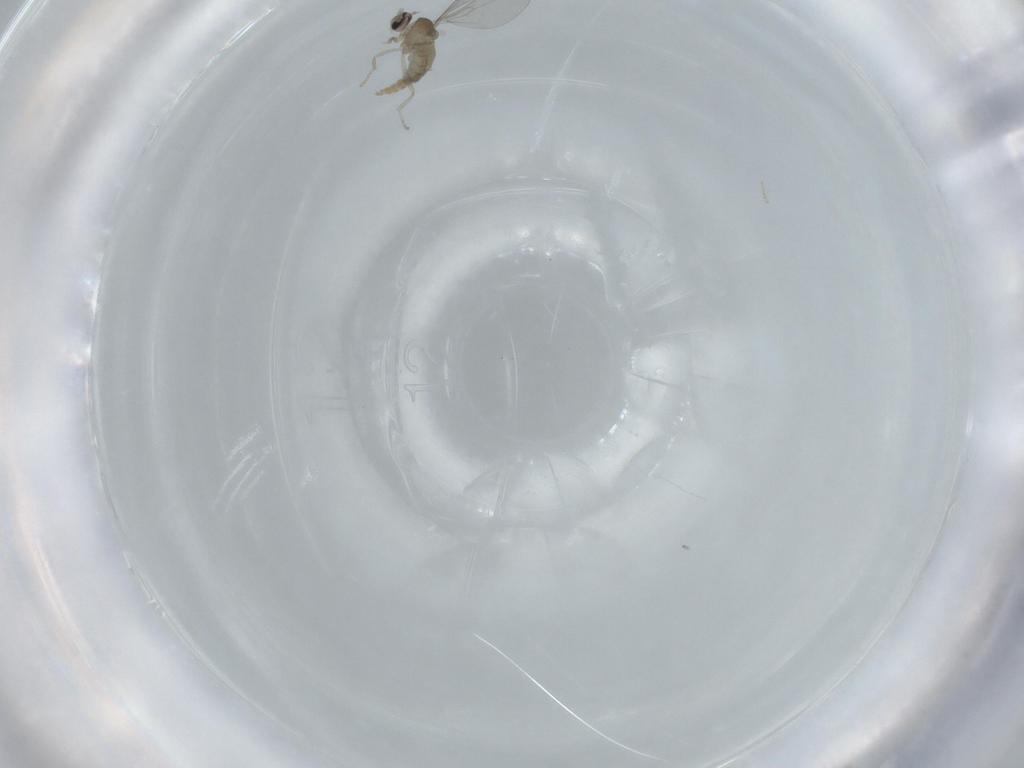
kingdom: Animalia
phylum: Arthropoda
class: Insecta
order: Diptera
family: Cecidomyiidae
